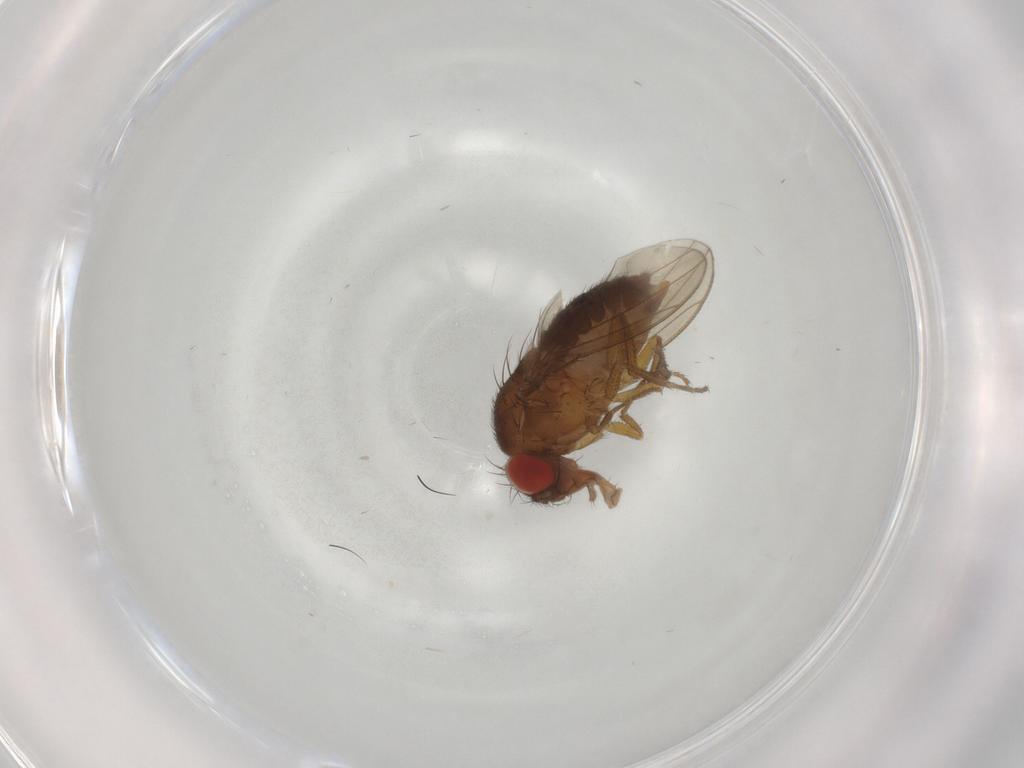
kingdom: Animalia
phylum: Arthropoda
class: Insecta
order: Diptera
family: Drosophilidae
